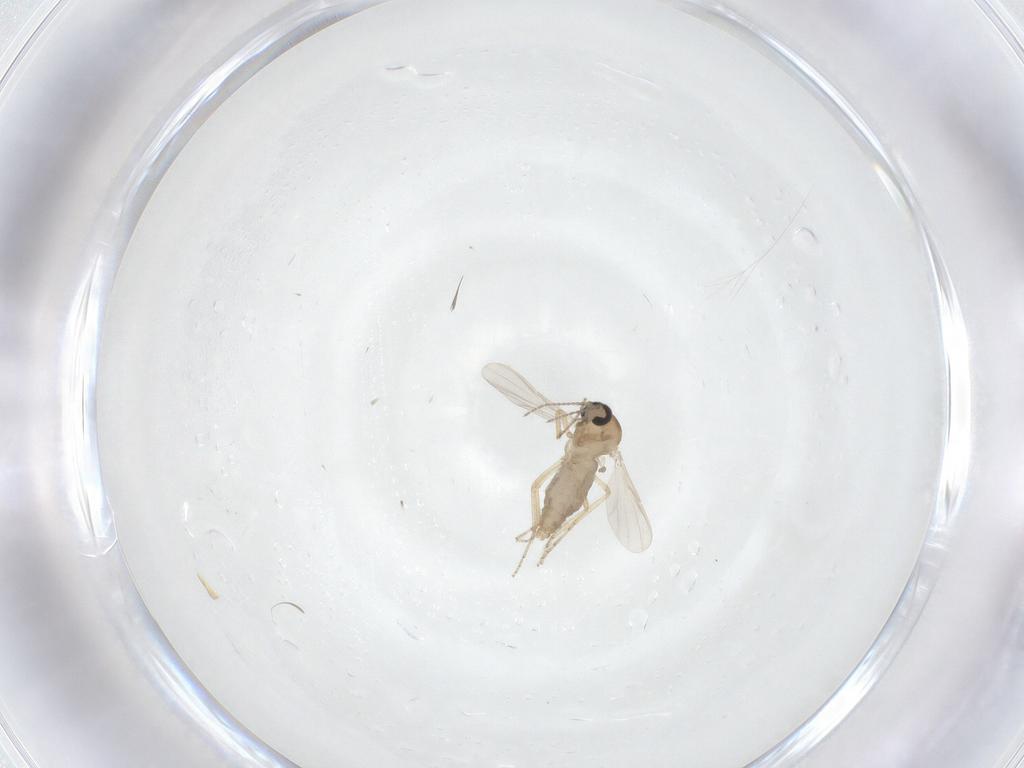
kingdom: Animalia
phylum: Arthropoda
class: Insecta
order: Diptera
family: Ceratopogonidae
